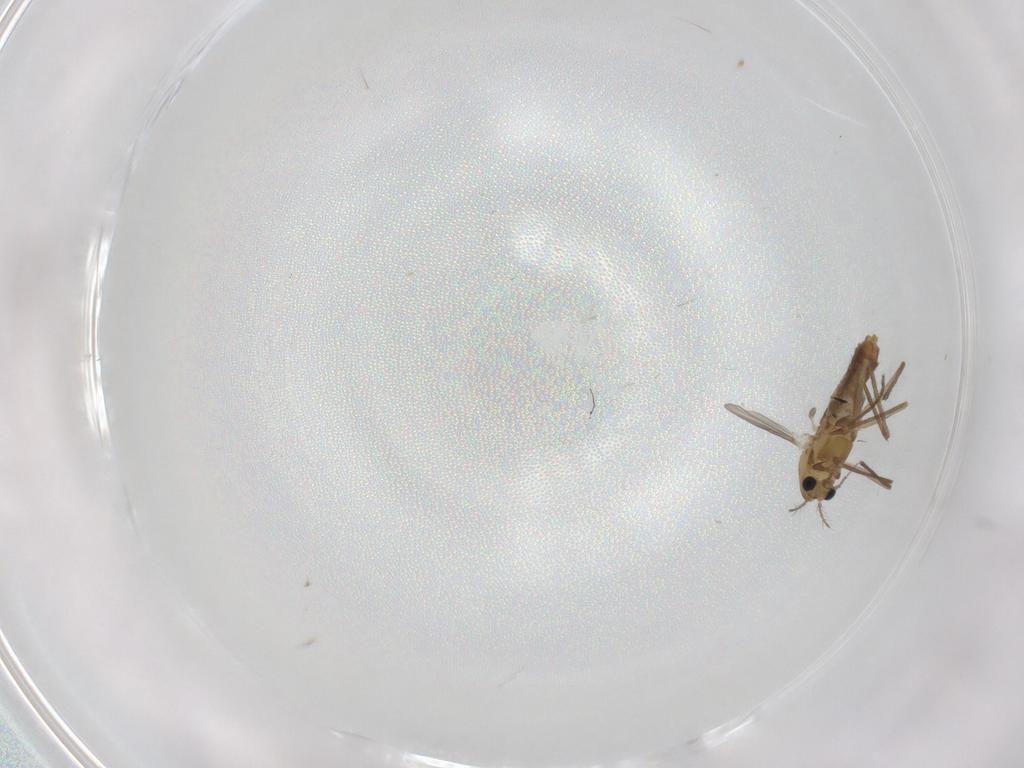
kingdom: Animalia
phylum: Arthropoda
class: Insecta
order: Diptera
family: Chironomidae
